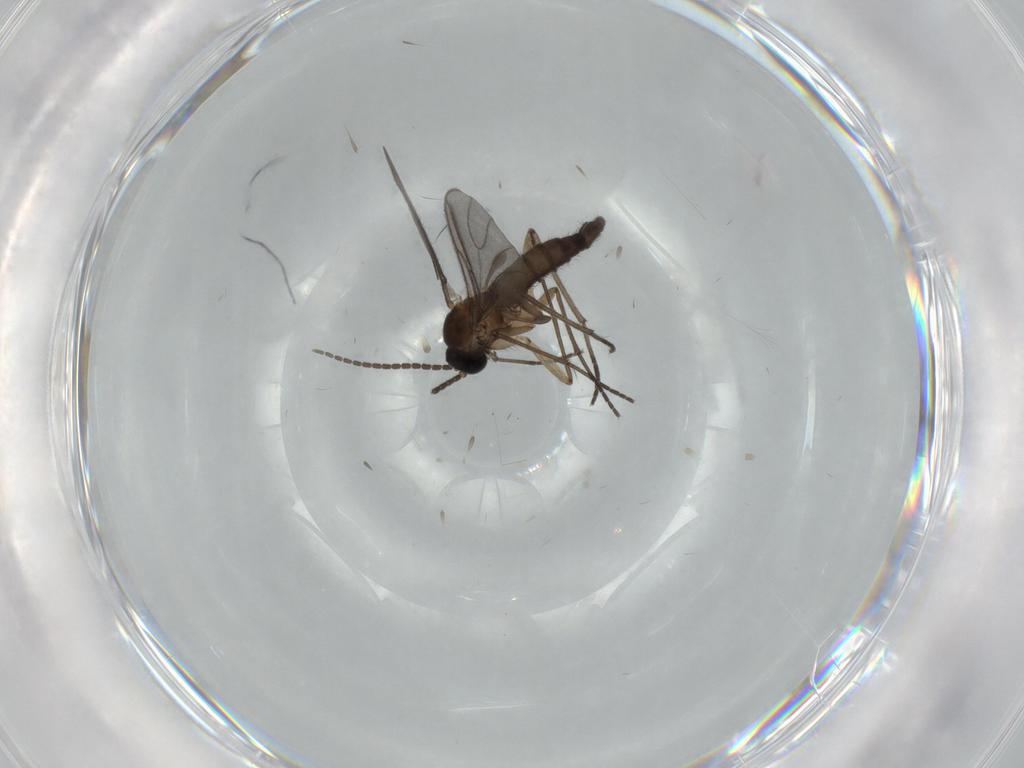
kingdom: Animalia
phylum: Arthropoda
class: Insecta
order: Diptera
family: Sciaridae
